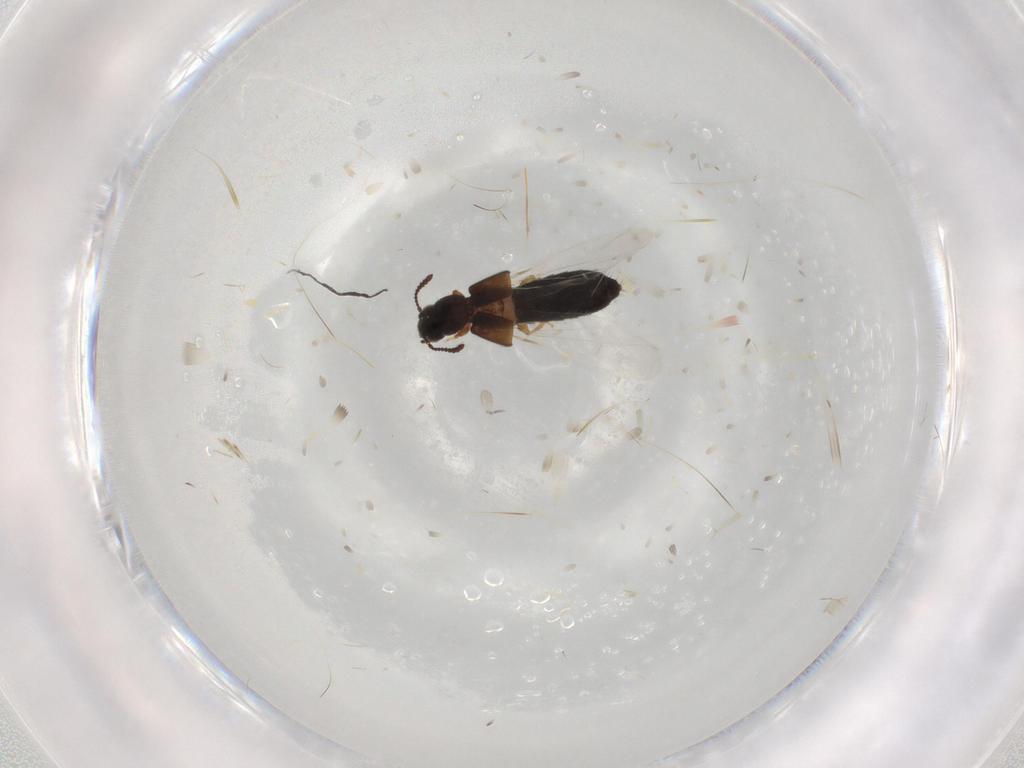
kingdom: Animalia
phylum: Arthropoda
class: Insecta
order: Coleoptera
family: Staphylinidae
